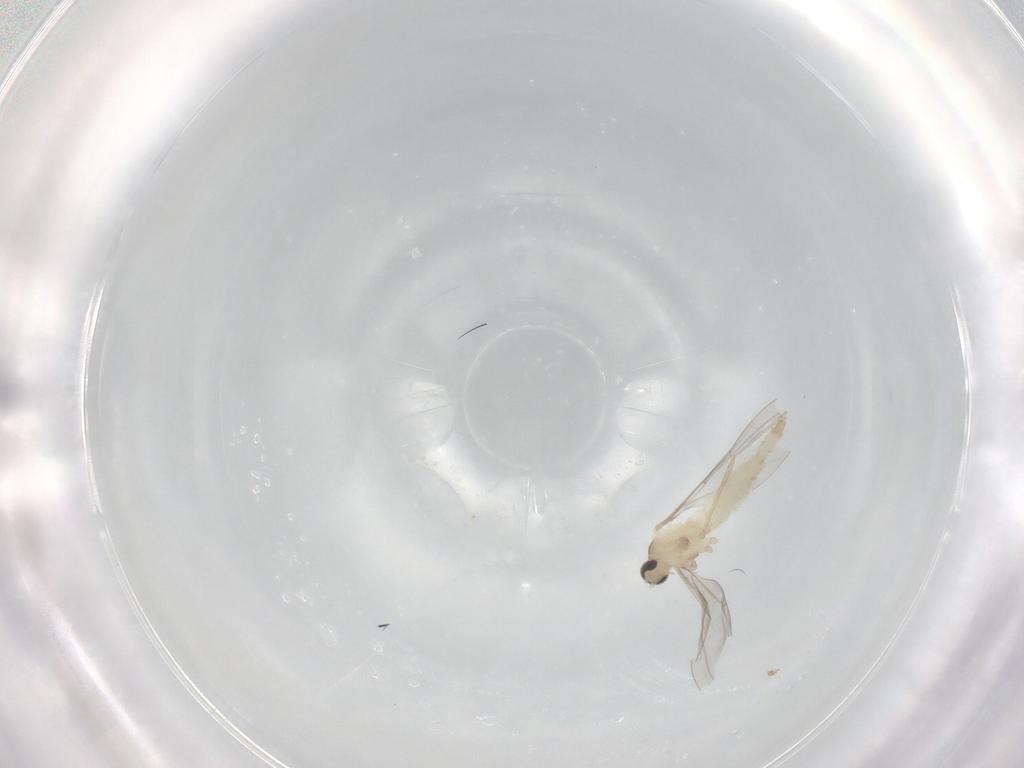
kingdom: Animalia
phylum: Arthropoda
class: Insecta
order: Diptera
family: Cecidomyiidae
